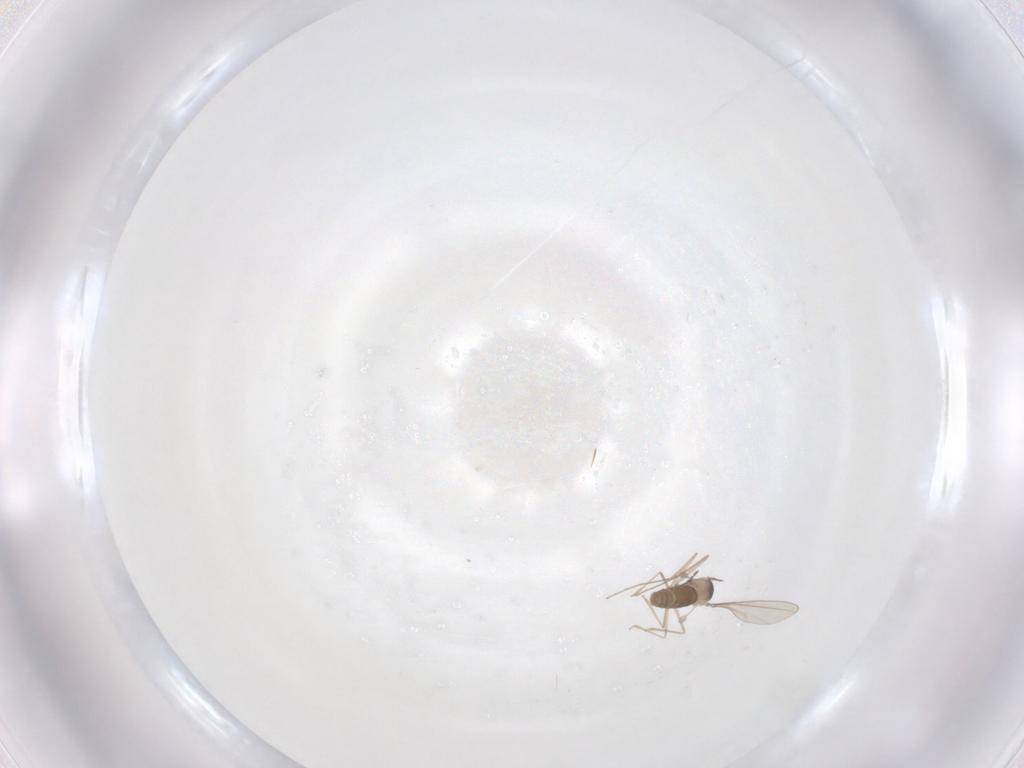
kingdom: Animalia
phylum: Arthropoda
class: Insecta
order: Diptera
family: Cecidomyiidae
